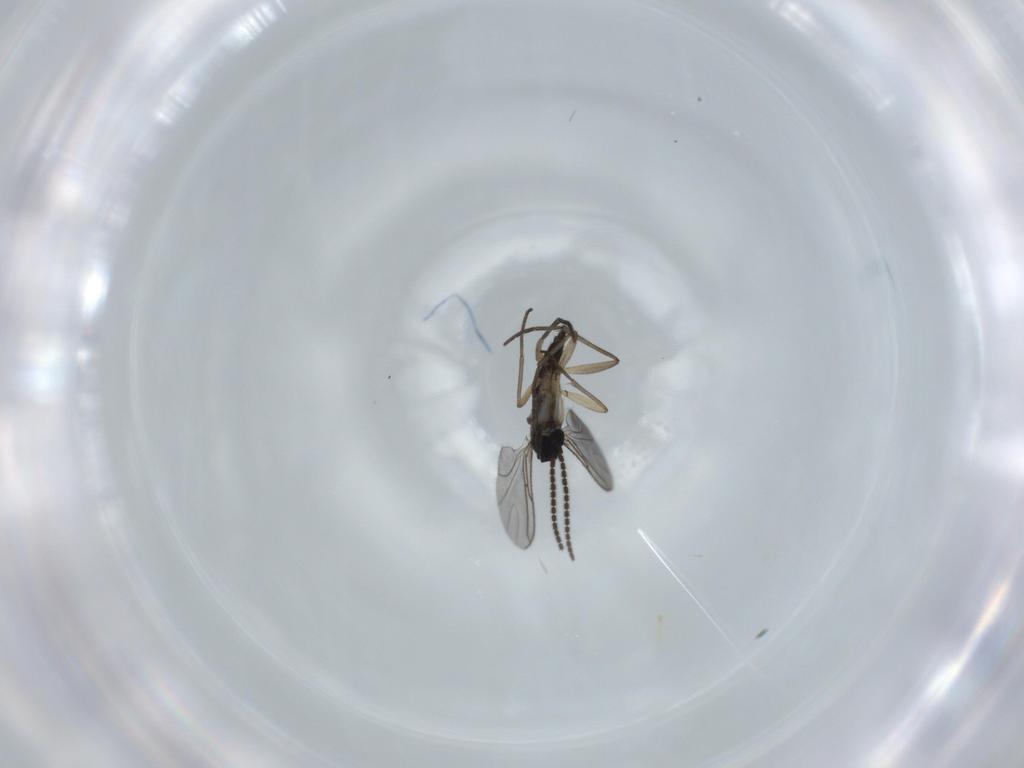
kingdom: Animalia
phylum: Arthropoda
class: Insecta
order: Diptera
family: Sciaridae
